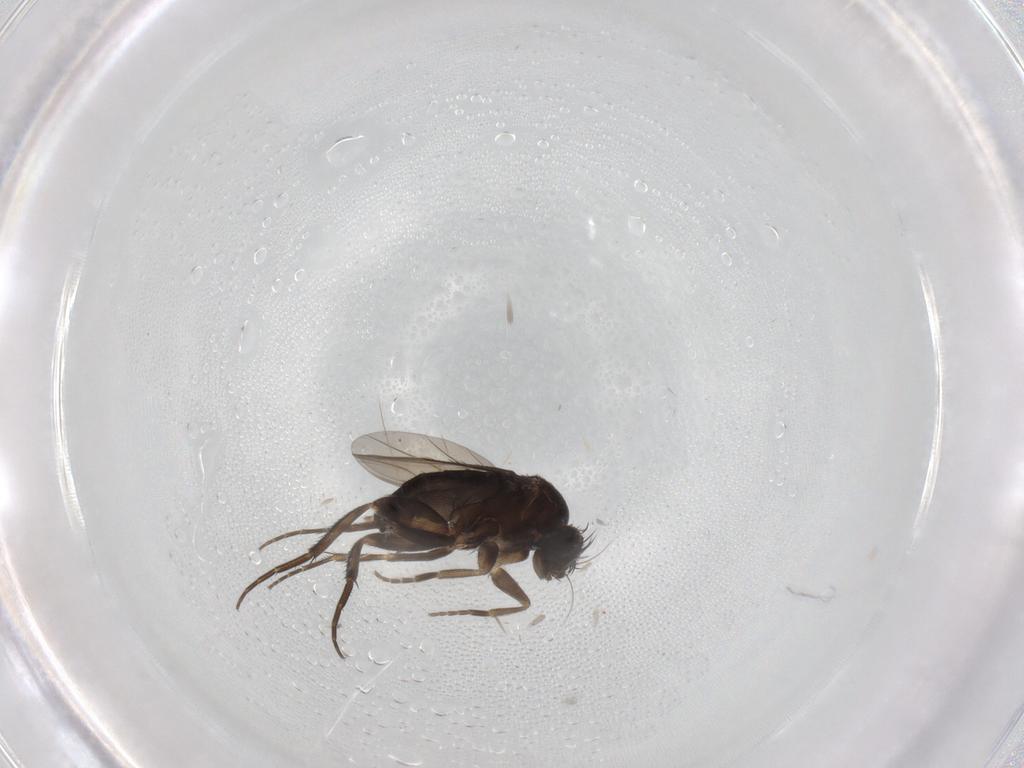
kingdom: Animalia
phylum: Arthropoda
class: Insecta
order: Diptera
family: Phoridae
